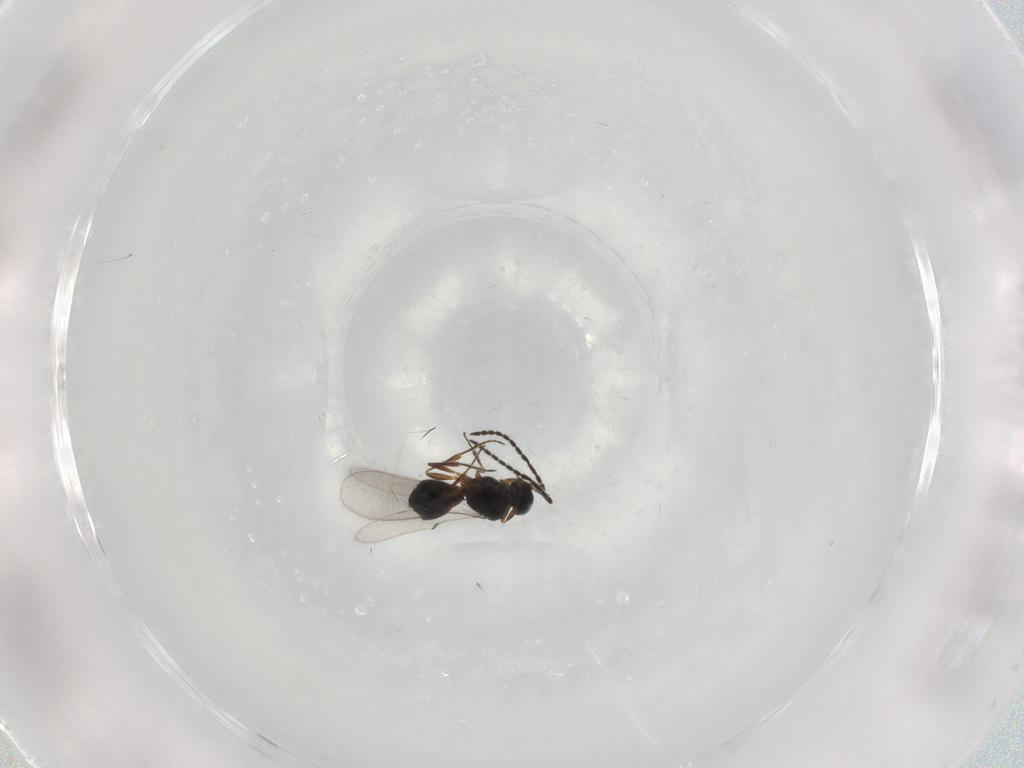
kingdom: Animalia
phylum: Arthropoda
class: Insecta
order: Hymenoptera
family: Scelionidae
